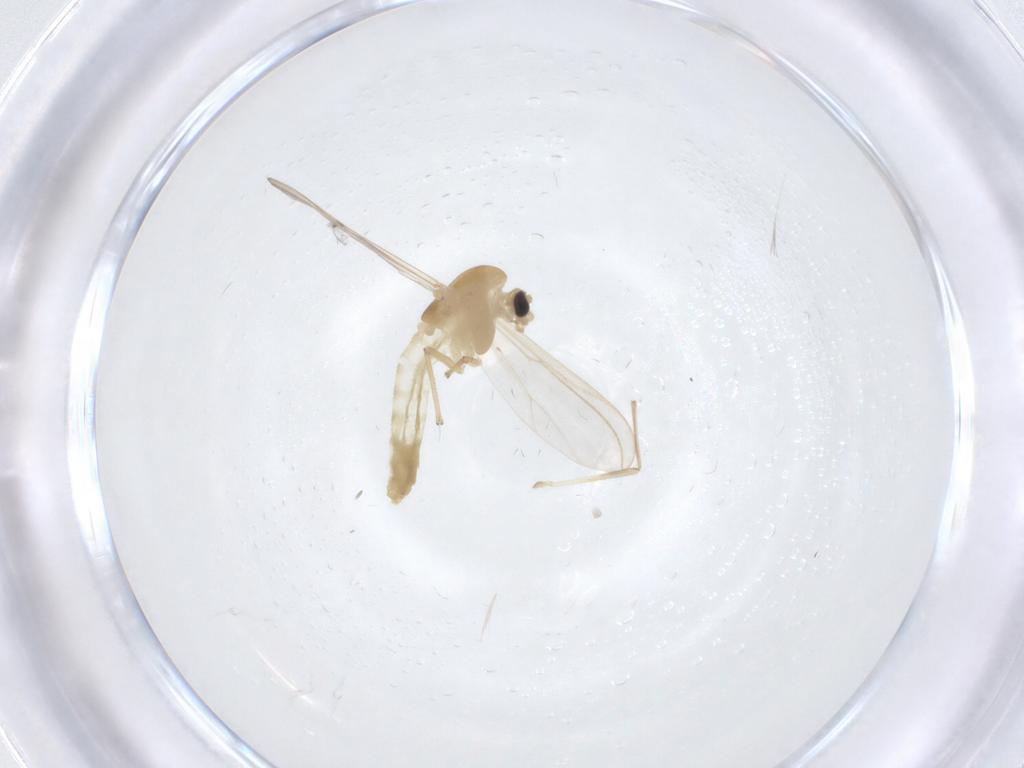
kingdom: Animalia
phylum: Arthropoda
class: Insecta
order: Diptera
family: Chironomidae
